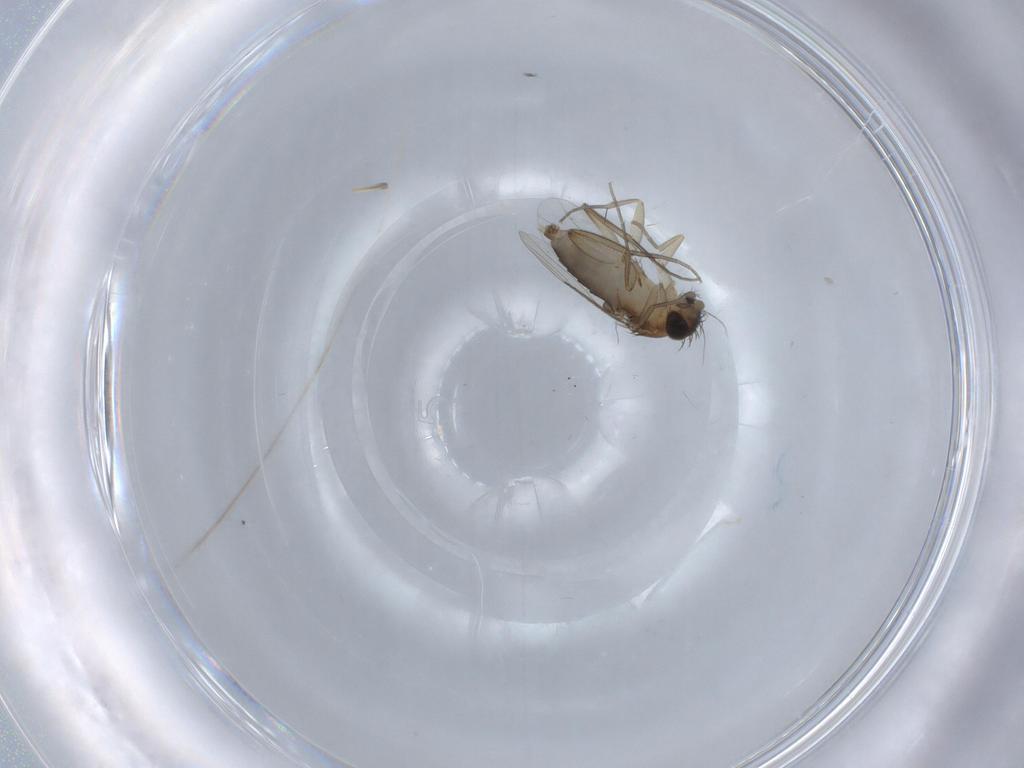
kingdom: Animalia
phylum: Arthropoda
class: Insecta
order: Diptera
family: Phoridae
